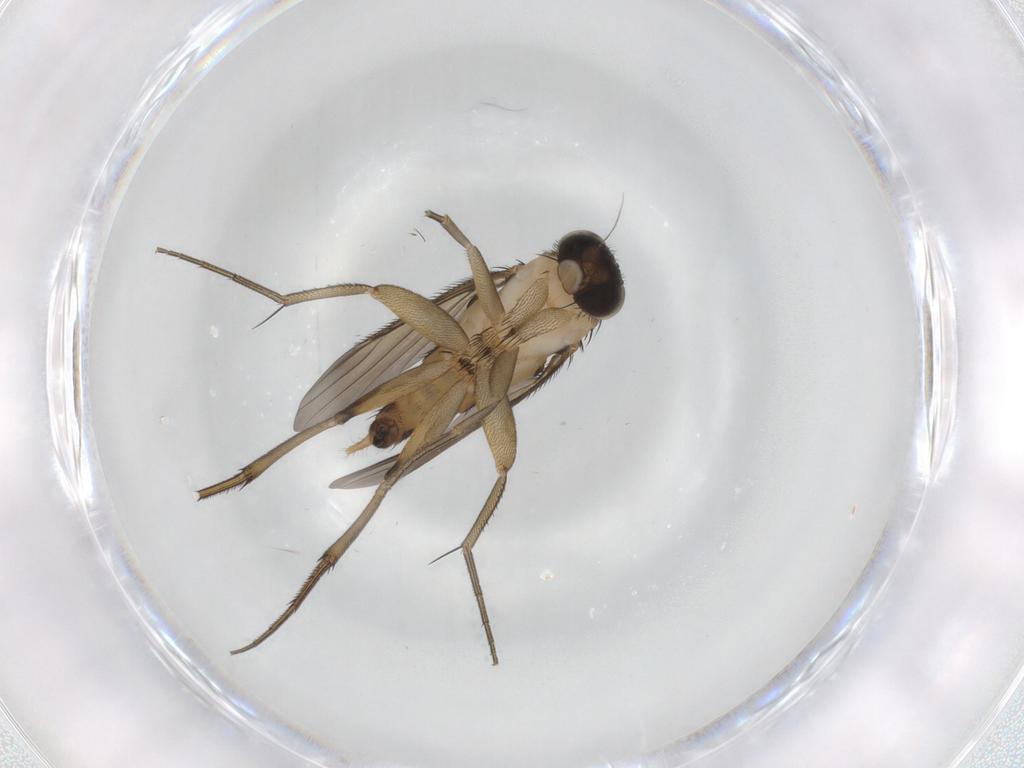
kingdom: Animalia
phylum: Arthropoda
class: Insecta
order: Diptera
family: Phoridae
